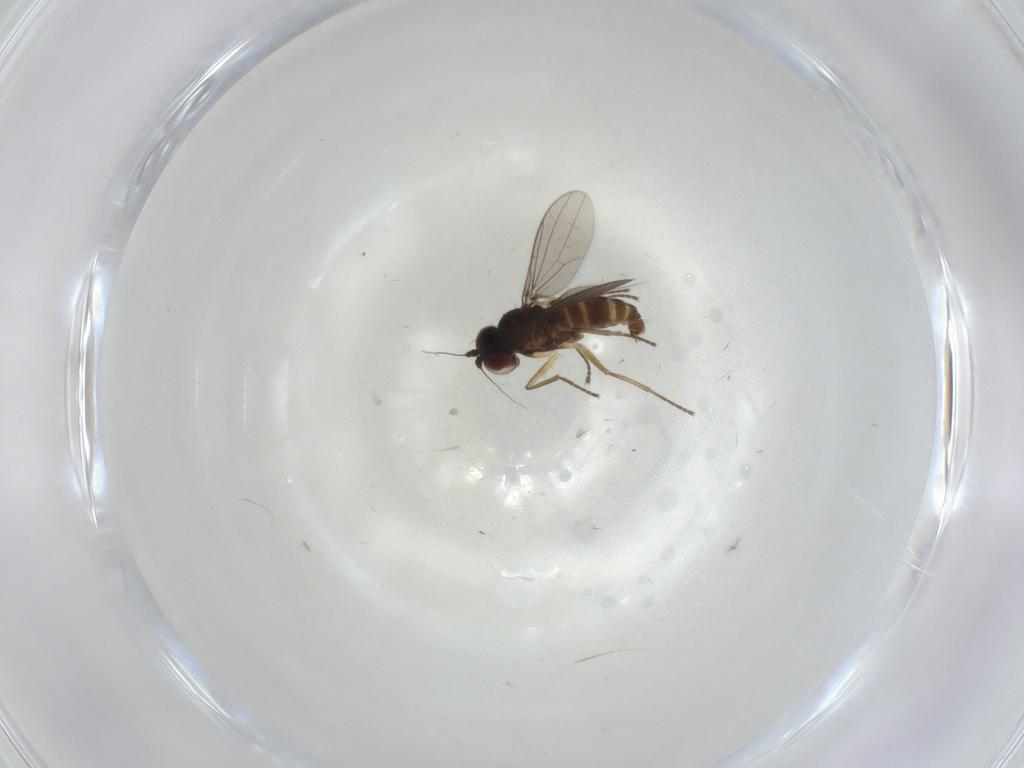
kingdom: Animalia
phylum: Arthropoda
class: Insecta
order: Diptera
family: Dolichopodidae
